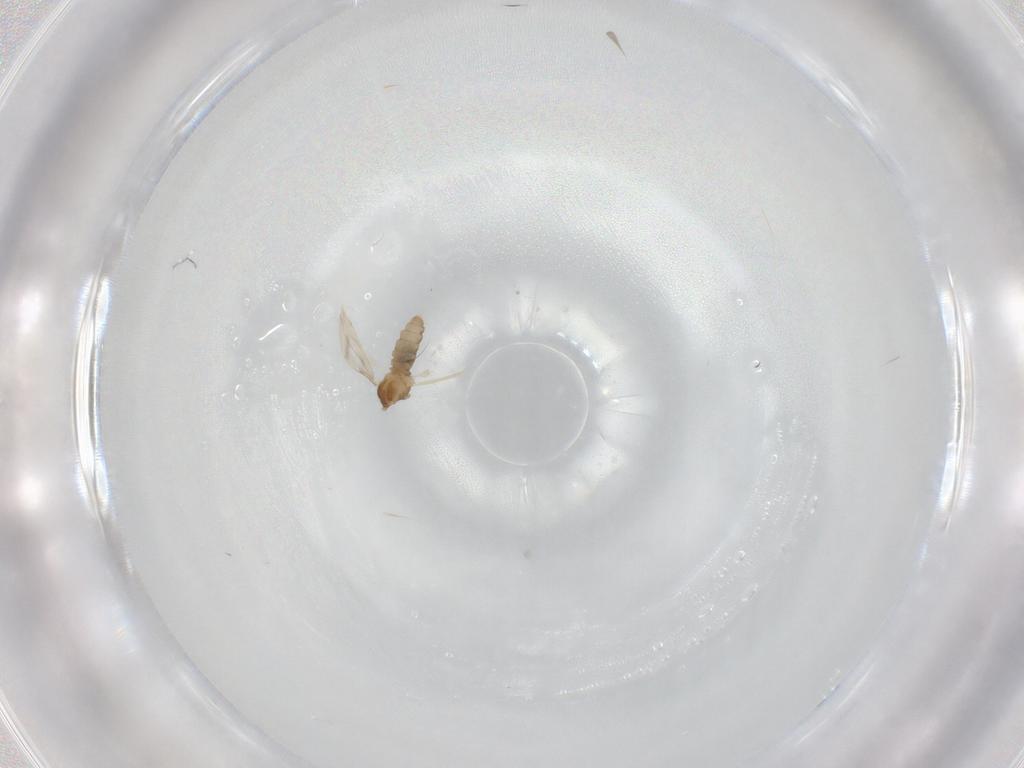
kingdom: Animalia
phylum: Arthropoda
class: Insecta
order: Diptera
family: Cecidomyiidae
